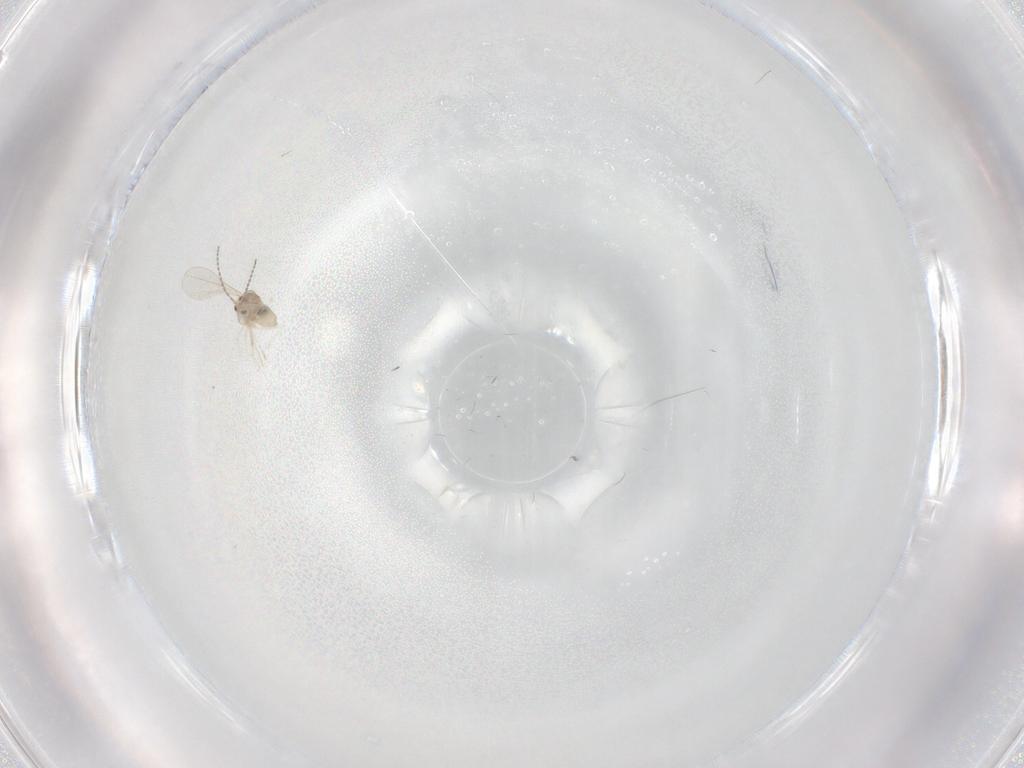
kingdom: Animalia
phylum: Arthropoda
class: Insecta
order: Diptera
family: Cecidomyiidae
